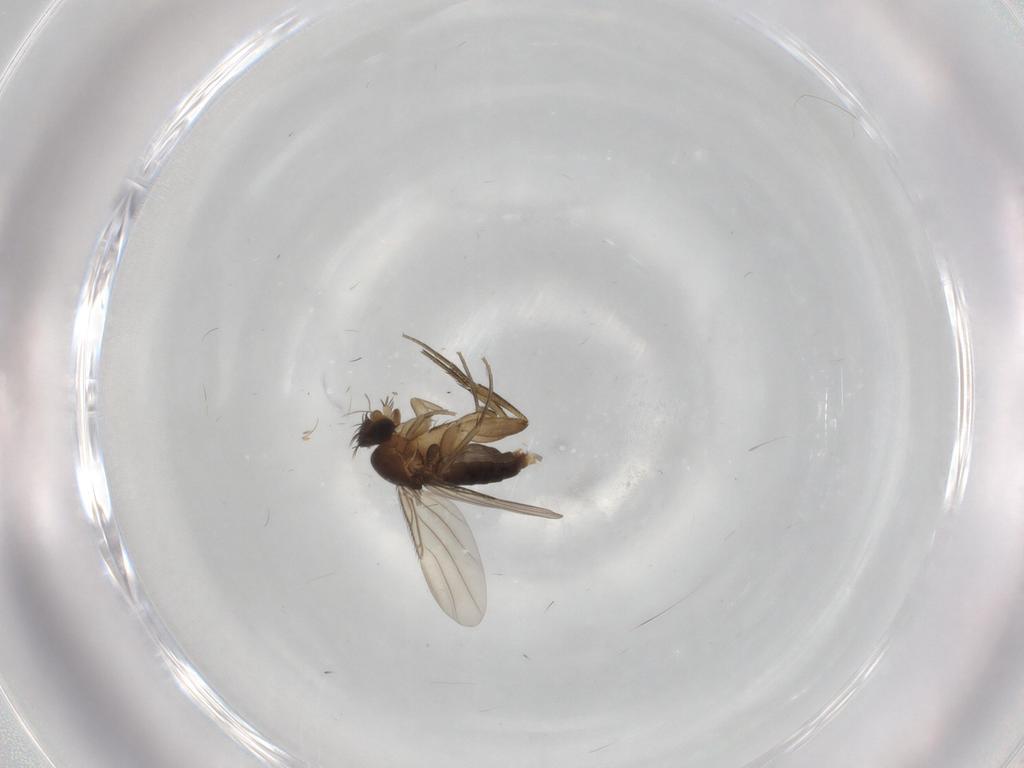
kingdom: Animalia
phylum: Arthropoda
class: Insecta
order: Diptera
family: Phoridae
